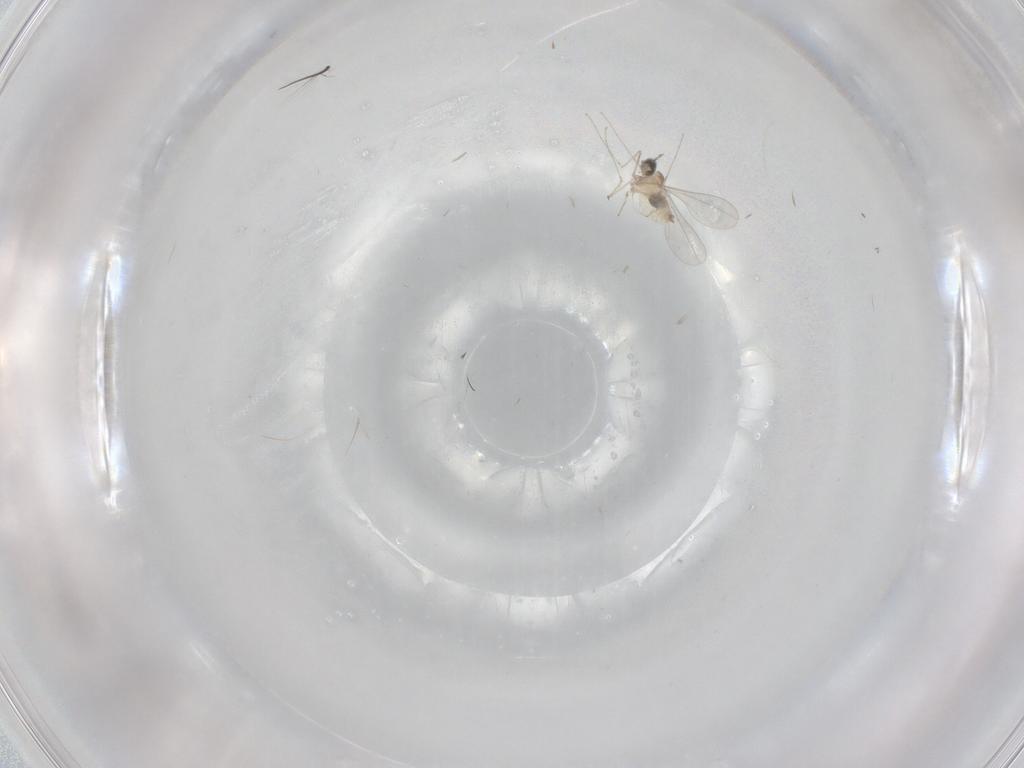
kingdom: Animalia
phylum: Arthropoda
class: Insecta
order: Diptera
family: Cecidomyiidae
